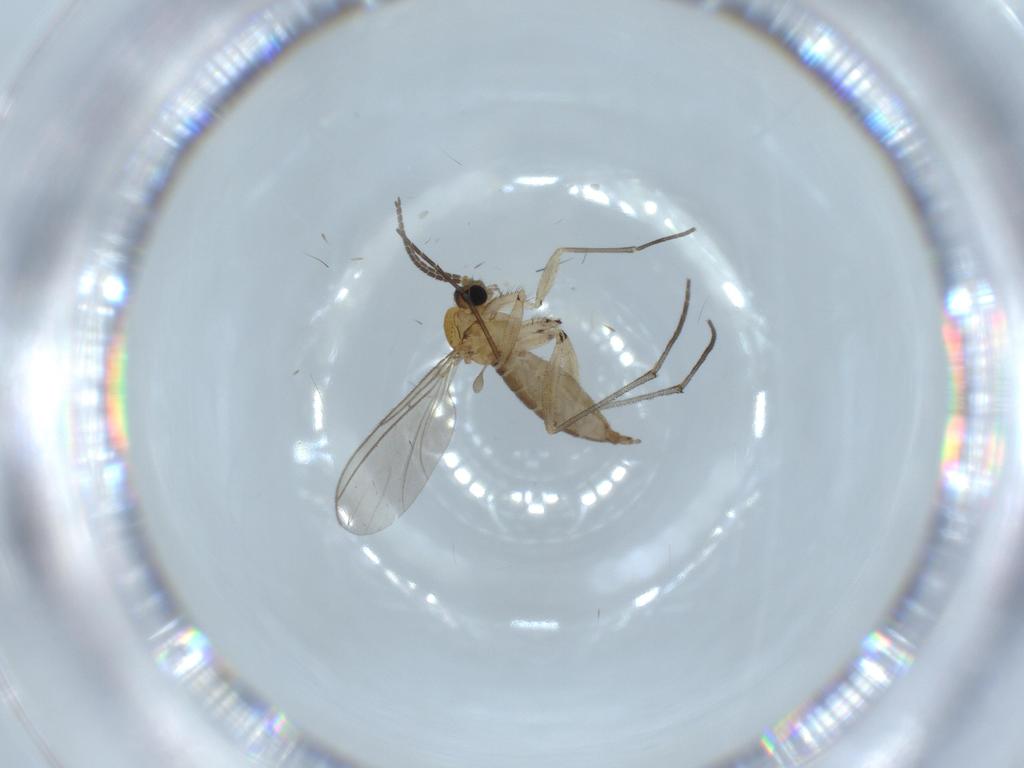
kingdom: Animalia
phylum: Arthropoda
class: Insecta
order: Diptera
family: Sciaridae
